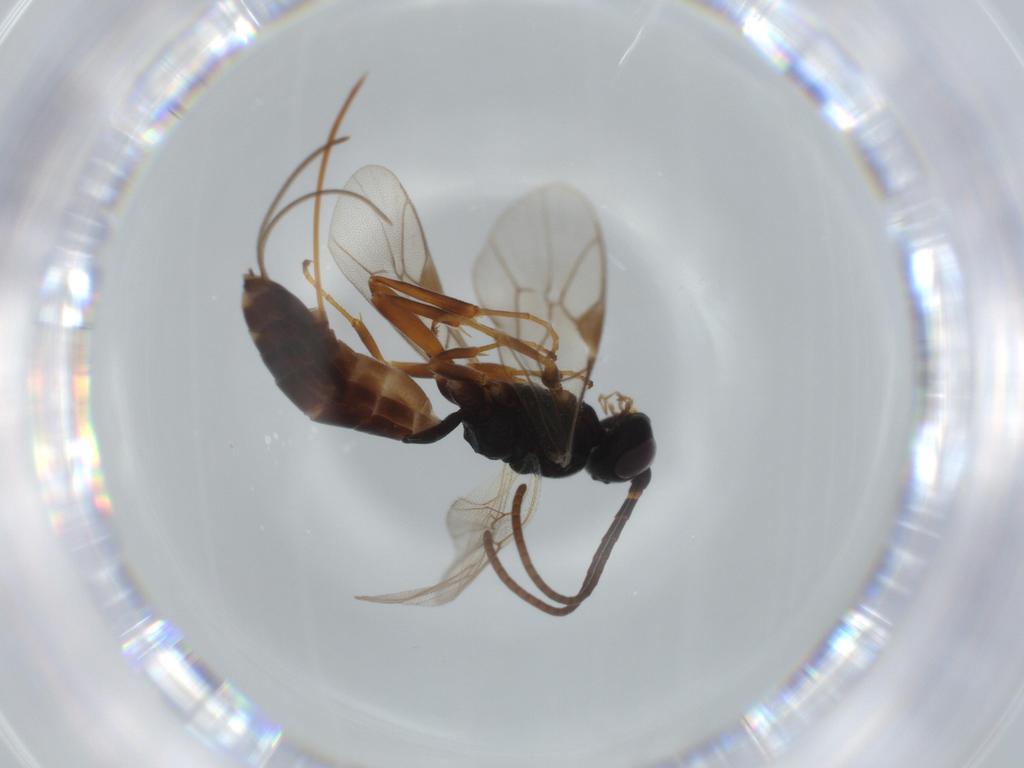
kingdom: Animalia
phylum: Arthropoda
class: Insecta
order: Hymenoptera
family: Ichneumonidae
